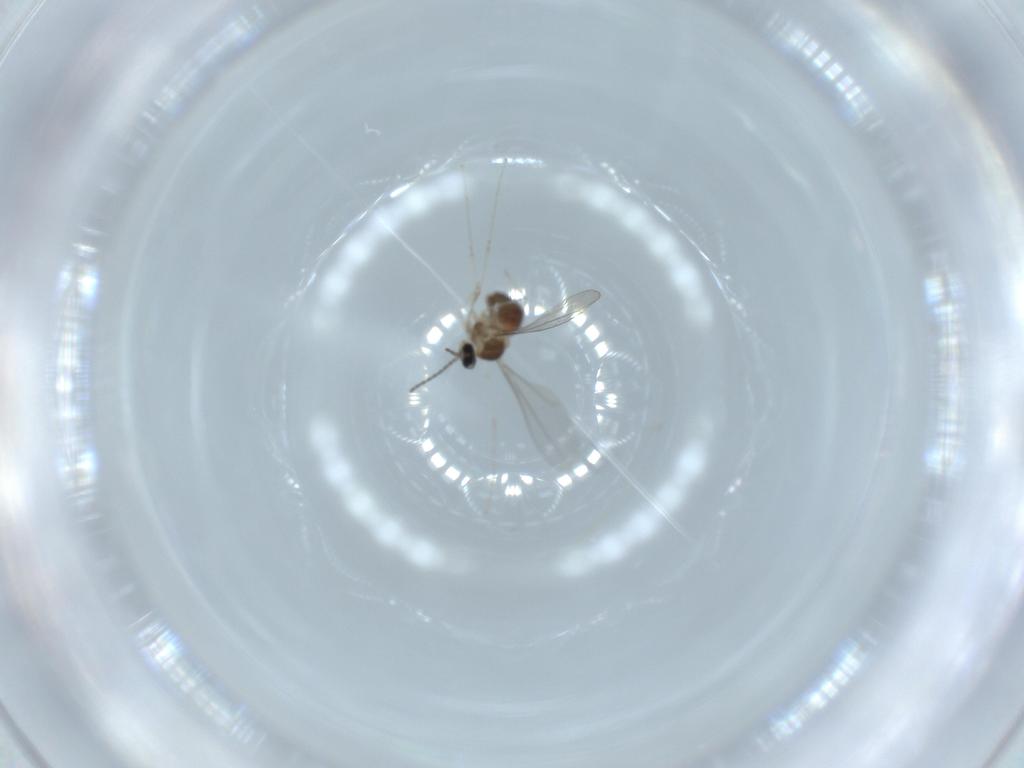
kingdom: Animalia
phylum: Arthropoda
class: Insecta
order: Diptera
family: Cecidomyiidae
